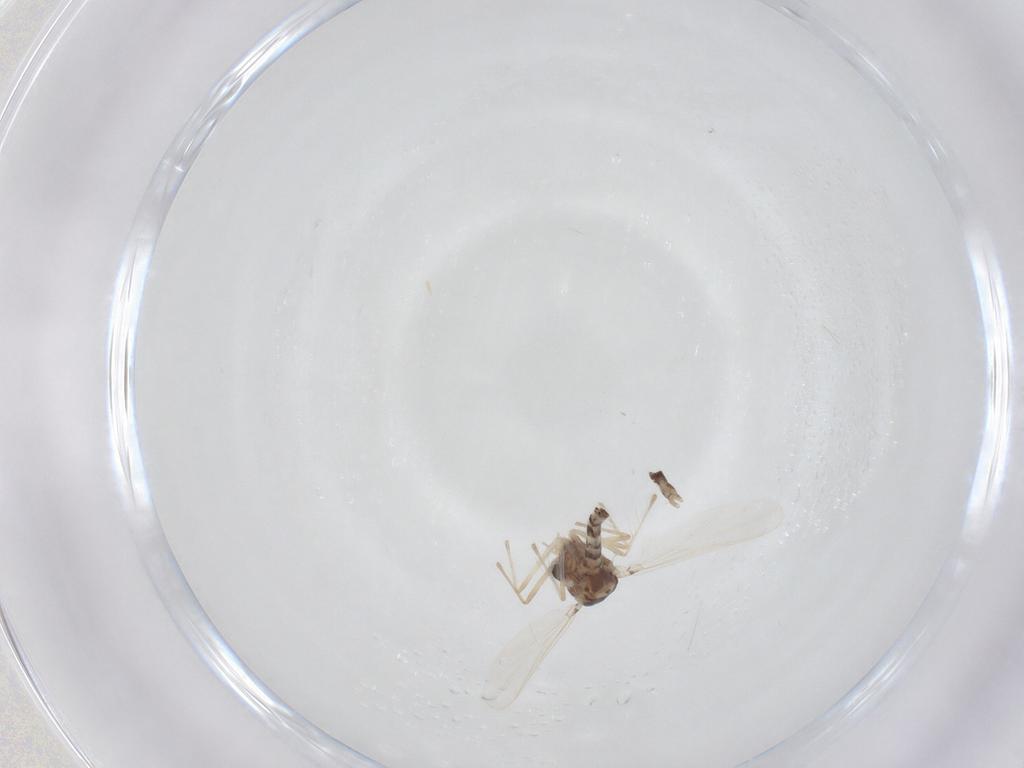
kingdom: Animalia
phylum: Arthropoda
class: Insecta
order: Diptera
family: Chironomidae
